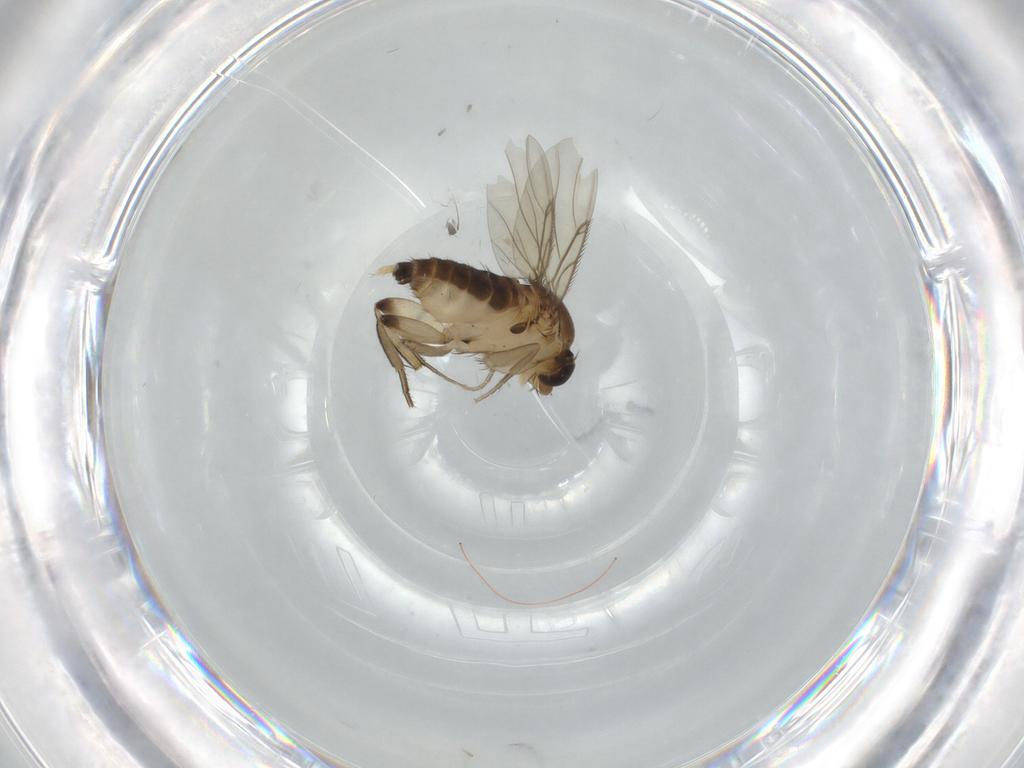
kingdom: Animalia
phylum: Arthropoda
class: Insecta
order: Diptera
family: Phoridae
